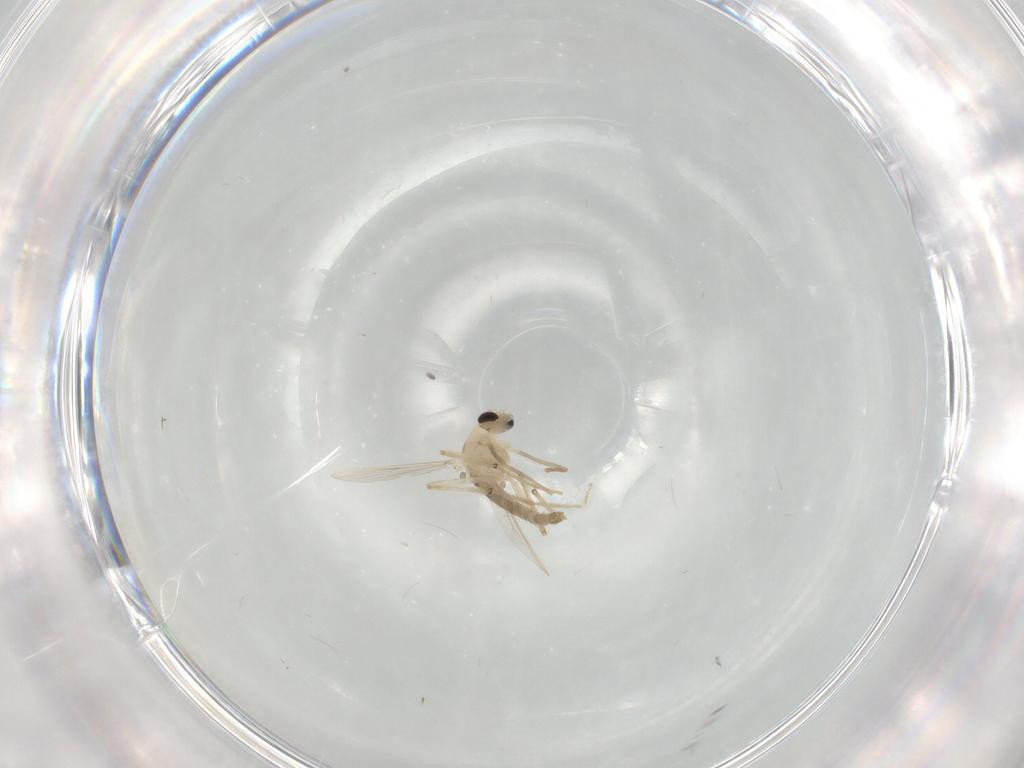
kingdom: Animalia
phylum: Arthropoda
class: Insecta
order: Diptera
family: Chironomidae
